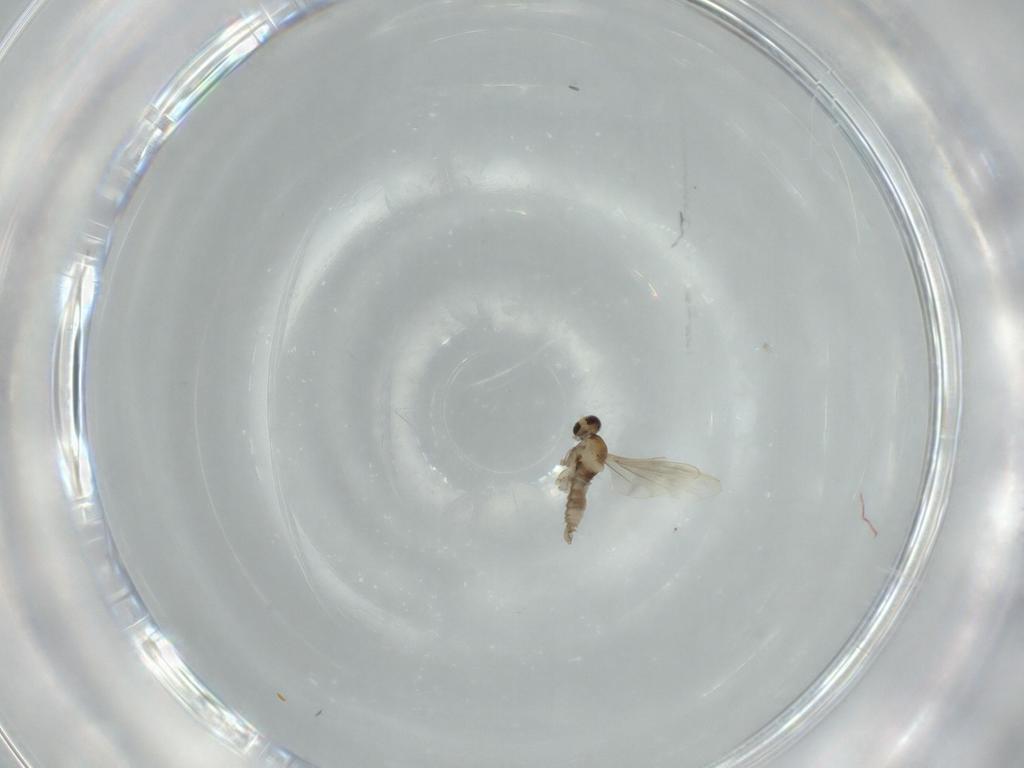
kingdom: Animalia
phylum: Arthropoda
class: Insecta
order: Diptera
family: Cecidomyiidae
